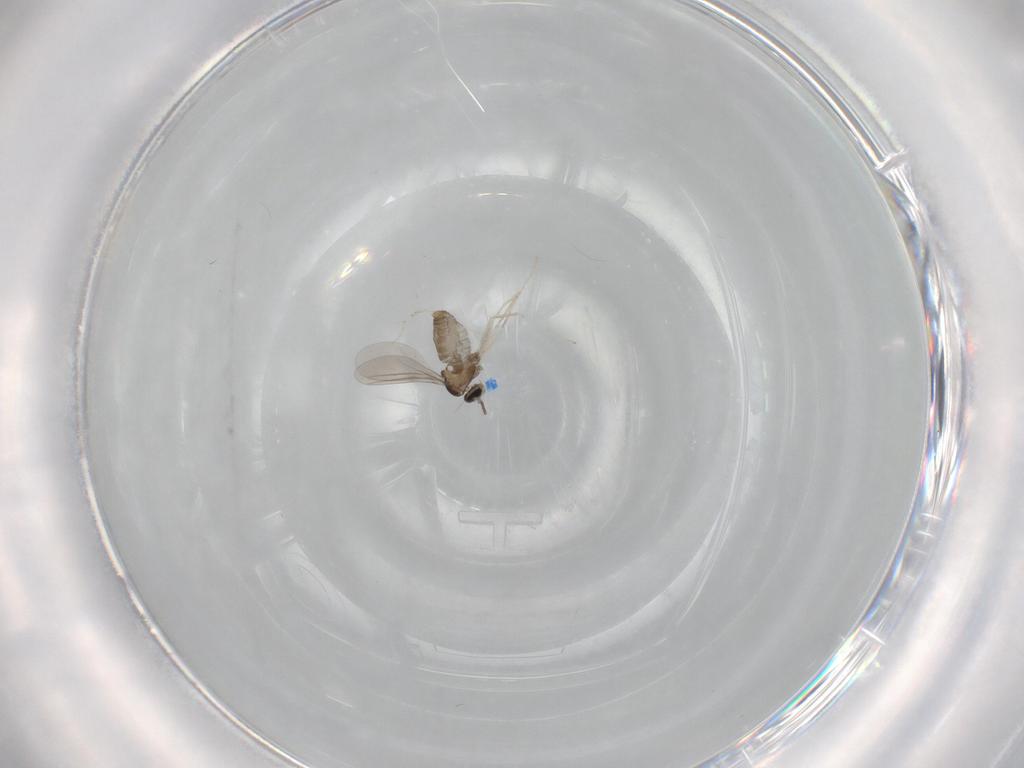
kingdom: Animalia
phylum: Arthropoda
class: Insecta
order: Diptera
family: Cecidomyiidae
